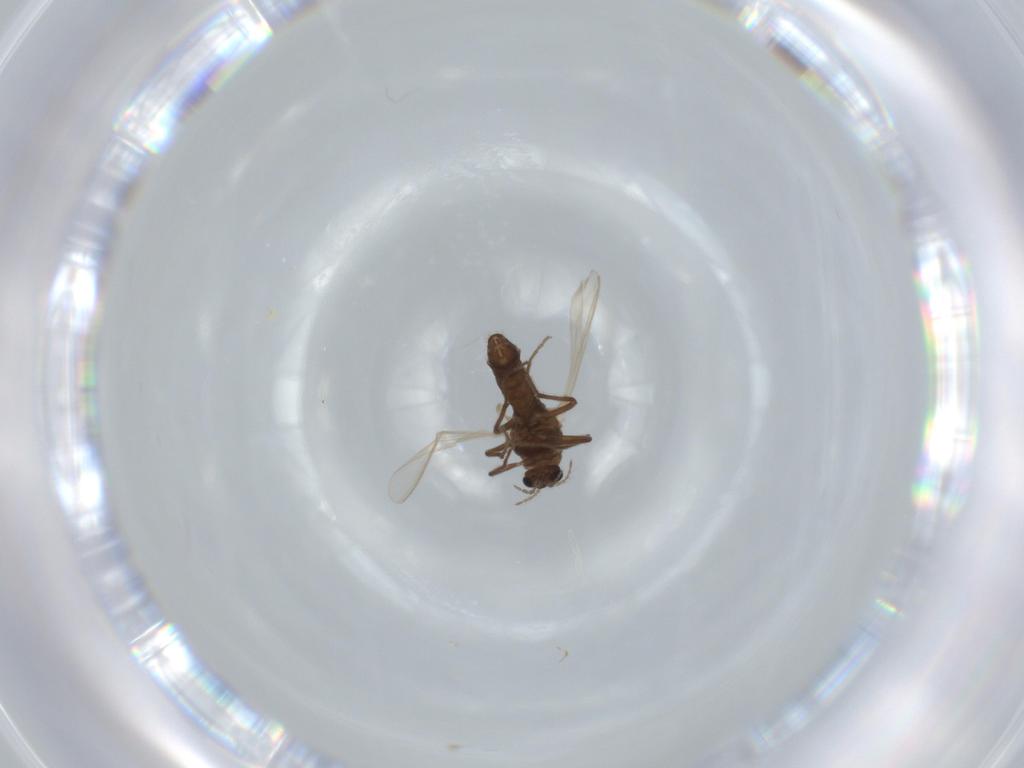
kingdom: Animalia
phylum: Arthropoda
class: Insecta
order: Diptera
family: Chironomidae
